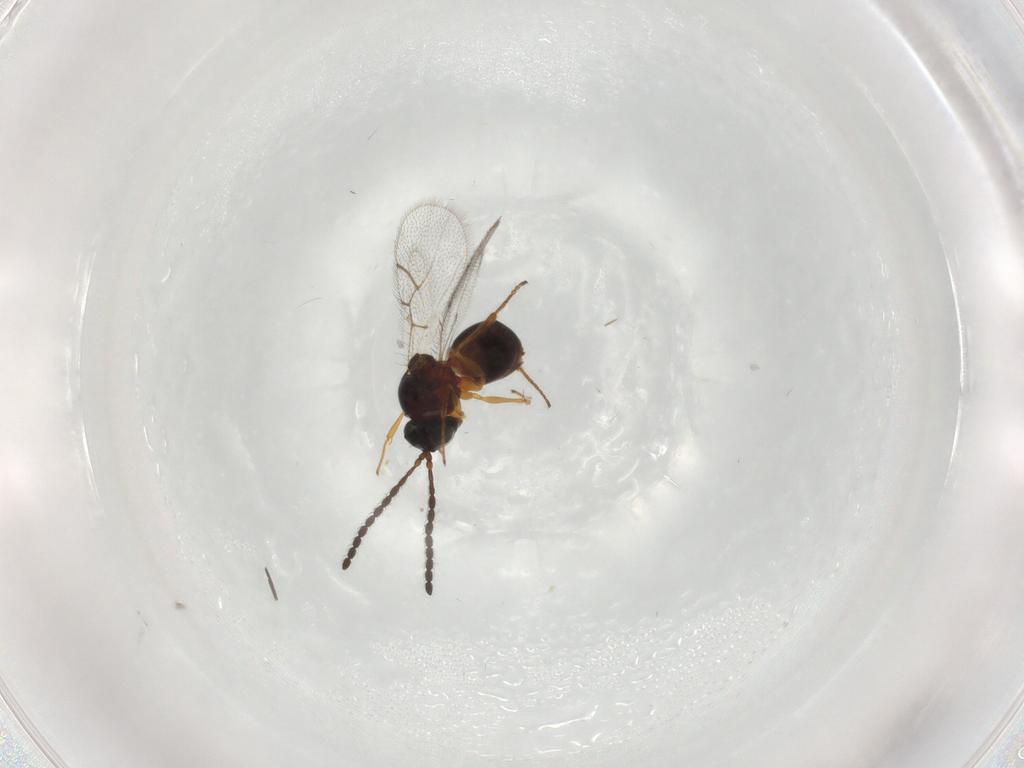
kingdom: Animalia
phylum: Arthropoda
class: Insecta
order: Hymenoptera
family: Figitidae
